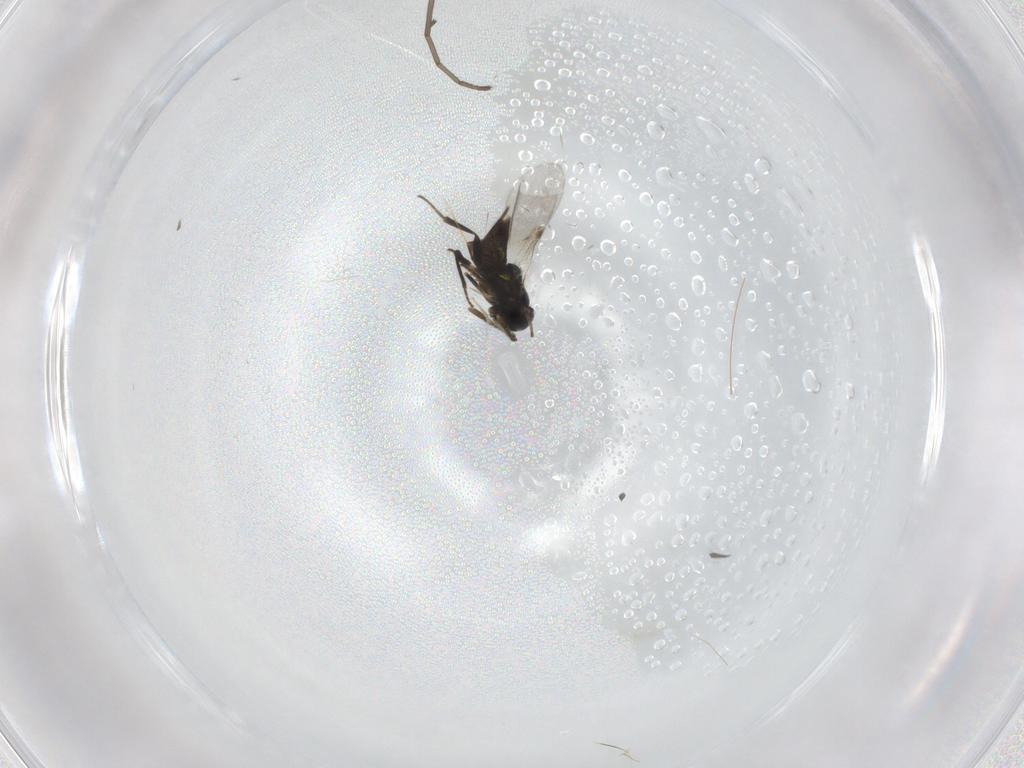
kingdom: Animalia
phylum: Arthropoda
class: Insecta
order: Hymenoptera
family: Encyrtidae
